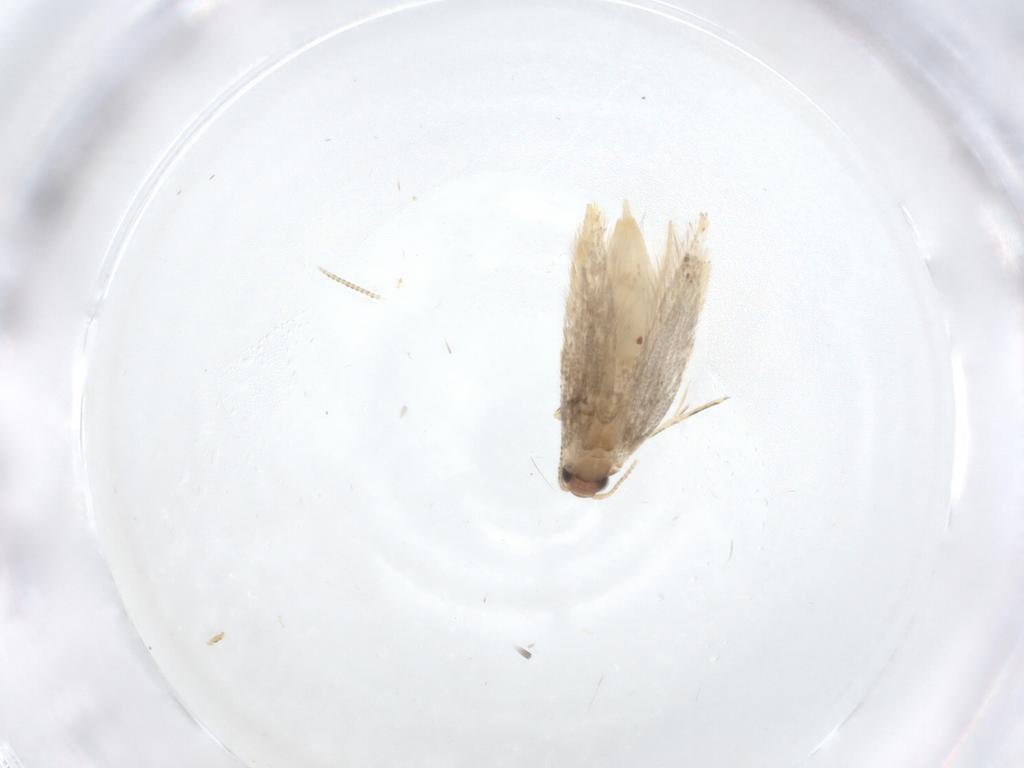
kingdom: Animalia
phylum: Arthropoda
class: Insecta
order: Lepidoptera
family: Tineidae
